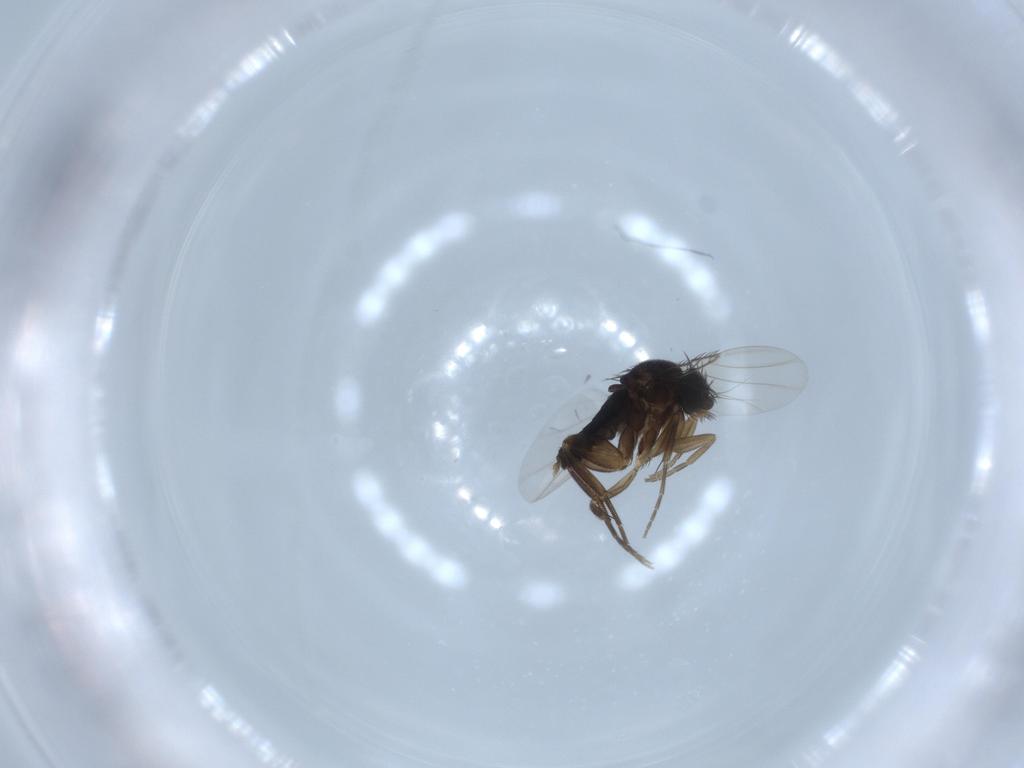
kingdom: Animalia
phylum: Arthropoda
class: Insecta
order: Diptera
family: Phoridae
